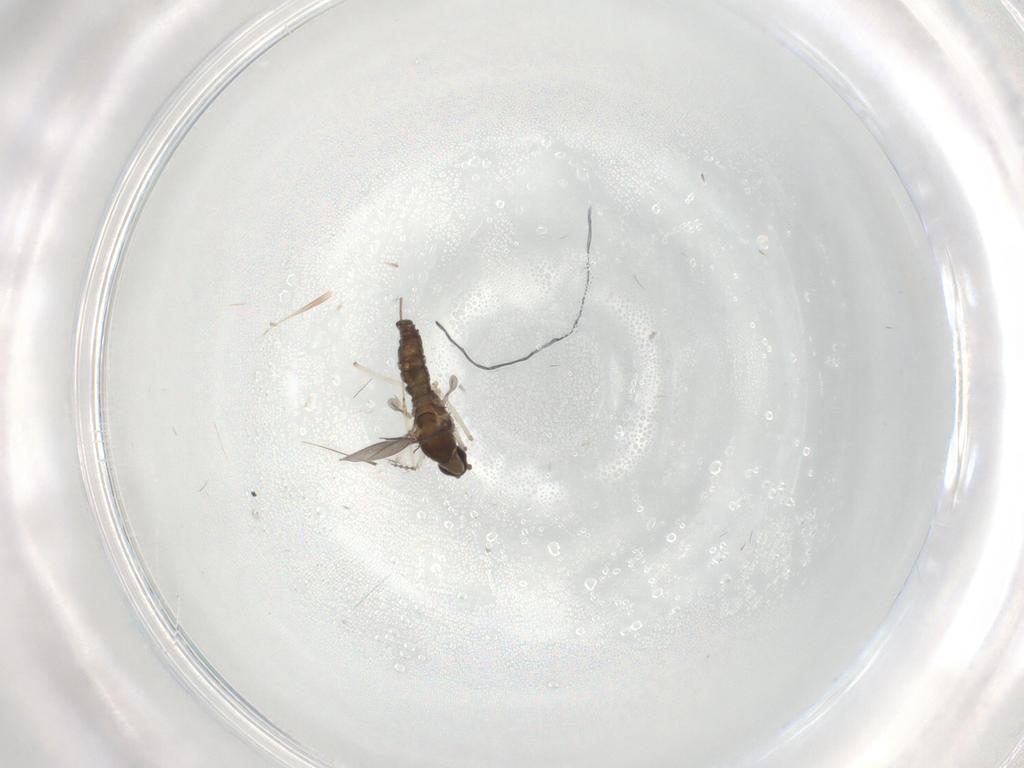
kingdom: Animalia
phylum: Arthropoda
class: Insecta
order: Diptera
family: Cecidomyiidae
